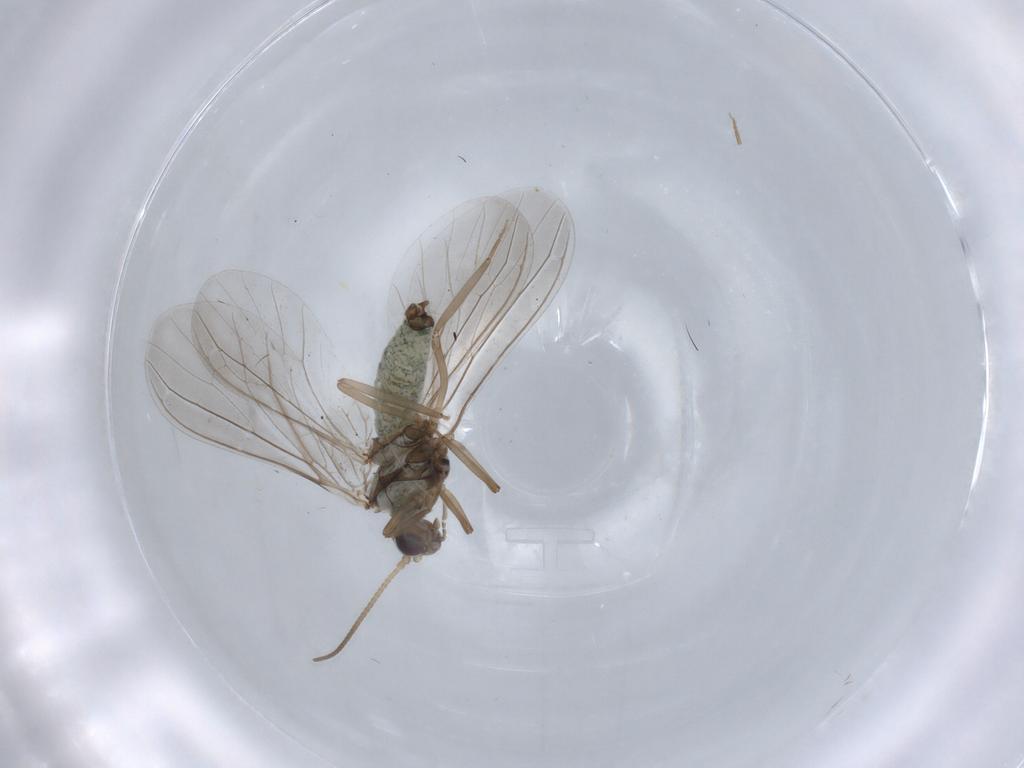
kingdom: Animalia
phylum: Arthropoda
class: Insecta
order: Neuroptera
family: Coniopterygidae
